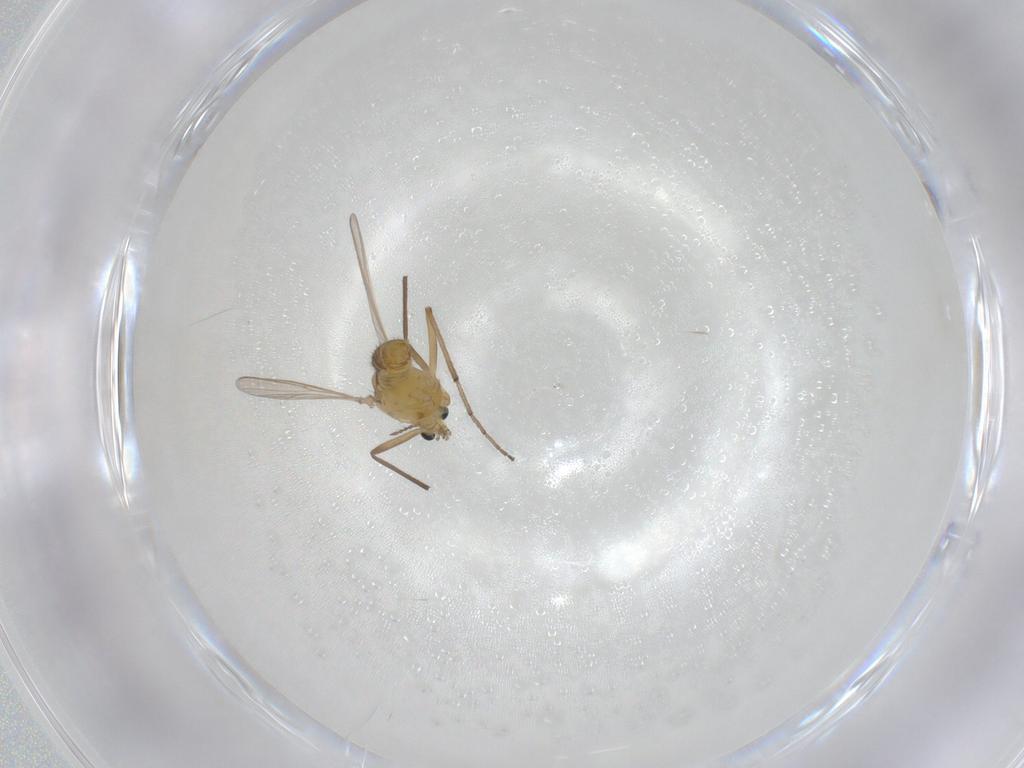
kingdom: Animalia
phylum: Arthropoda
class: Insecta
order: Diptera
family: Chironomidae
